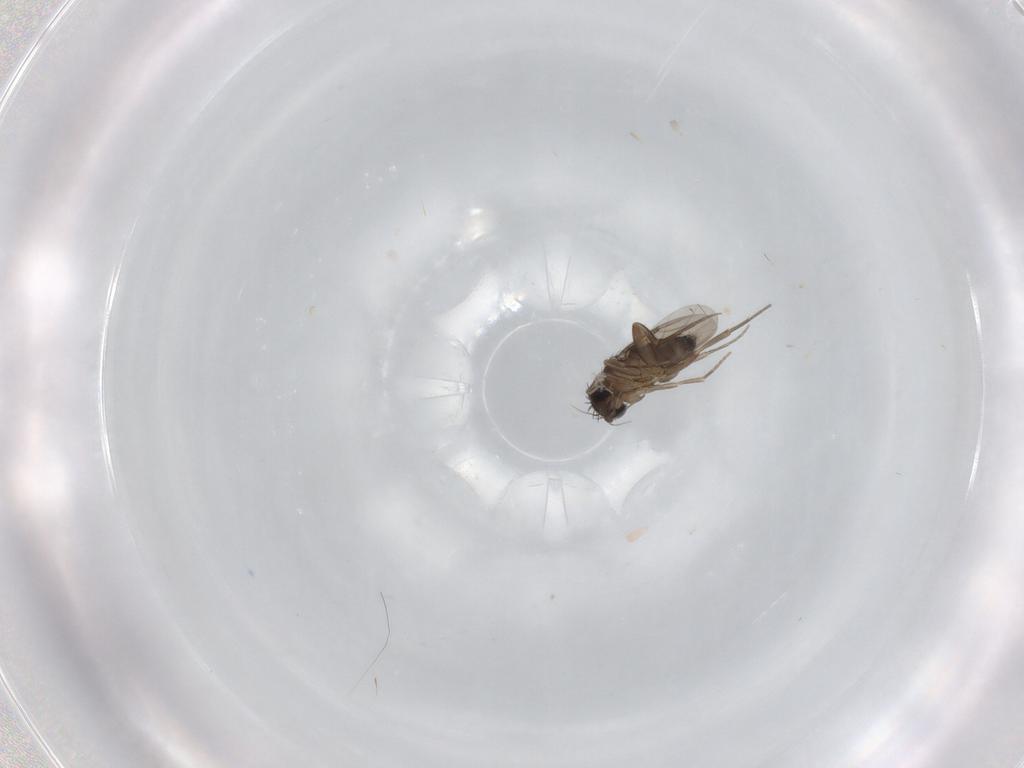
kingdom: Animalia
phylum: Arthropoda
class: Insecta
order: Diptera
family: Phoridae
